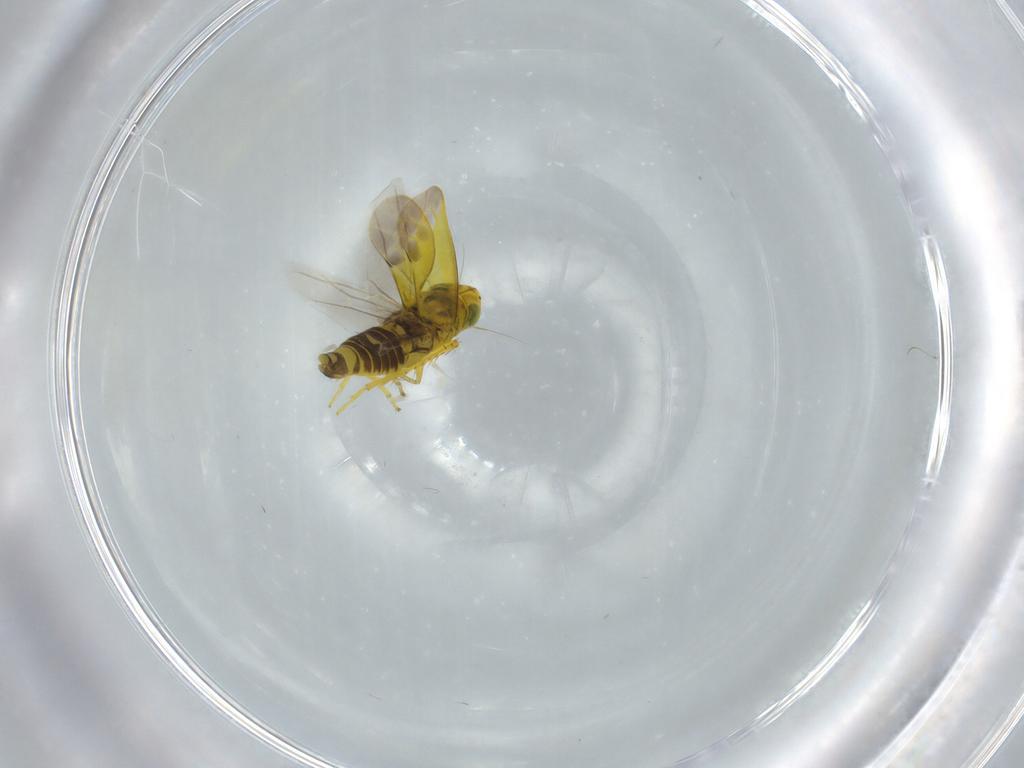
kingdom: Animalia
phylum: Arthropoda
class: Insecta
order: Hemiptera
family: Cicadellidae
